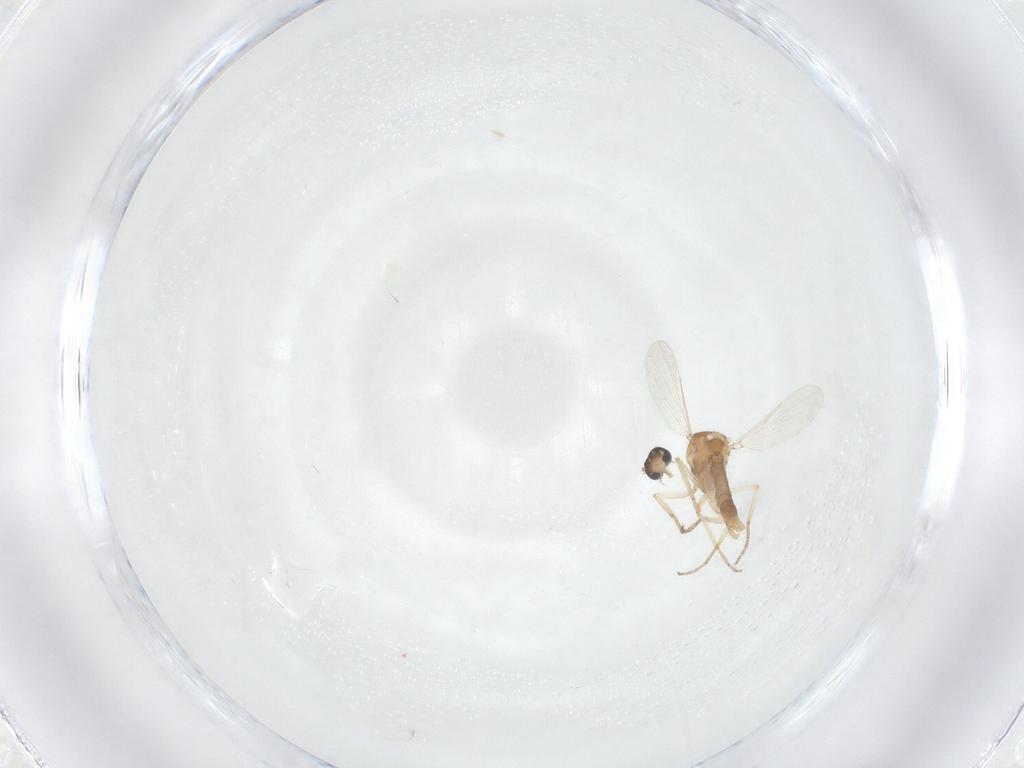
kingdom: Animalia
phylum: Arthropoda
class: Insecta
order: Diptera
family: Ceratopogonidae
